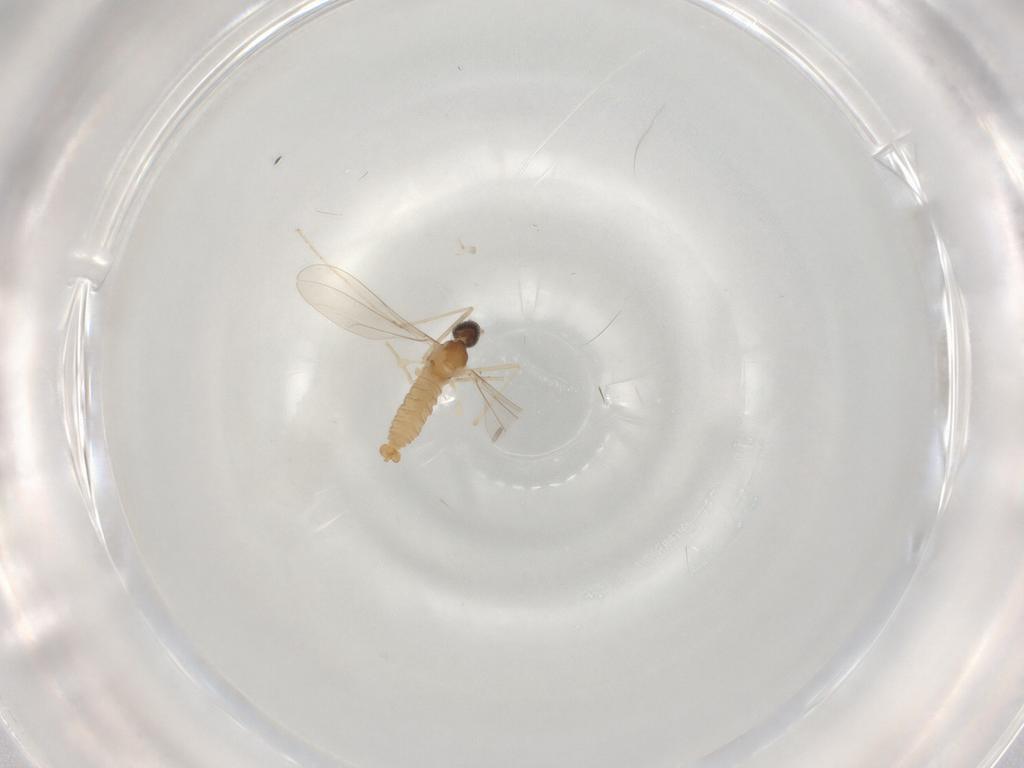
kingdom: Animalia
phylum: Arthropoda
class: Insecta
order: Diptera
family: Cecidomyiidae
